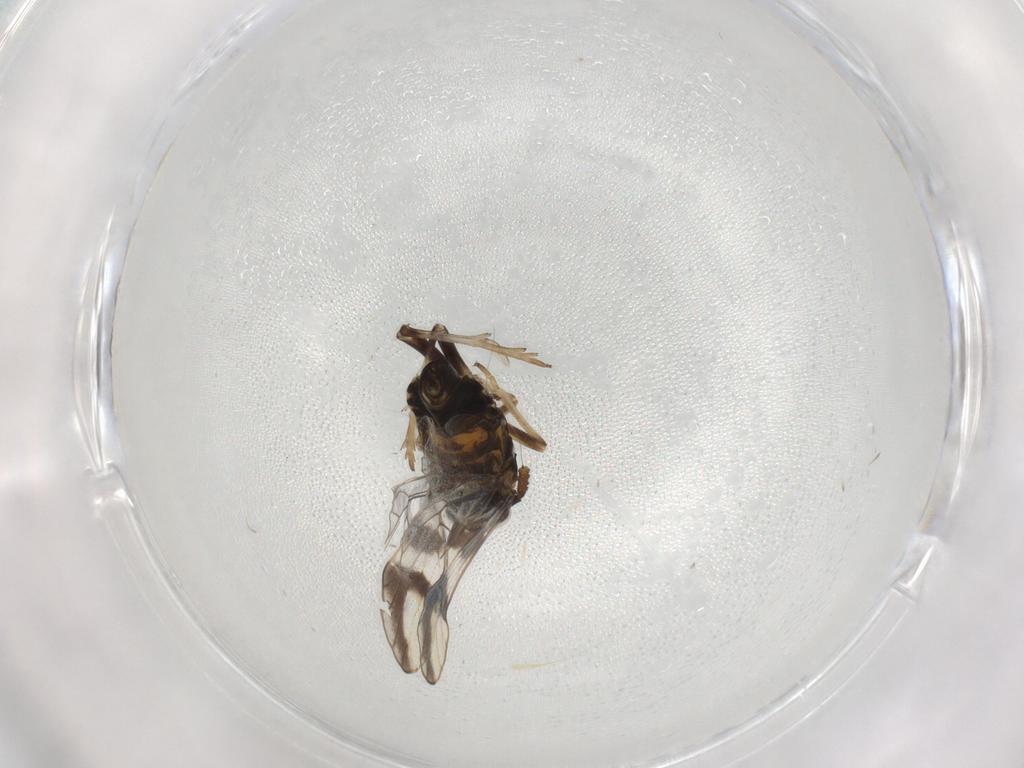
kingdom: Animalia
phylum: Arthropoda
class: Insecta
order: Hemiptera
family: Delphacidae
